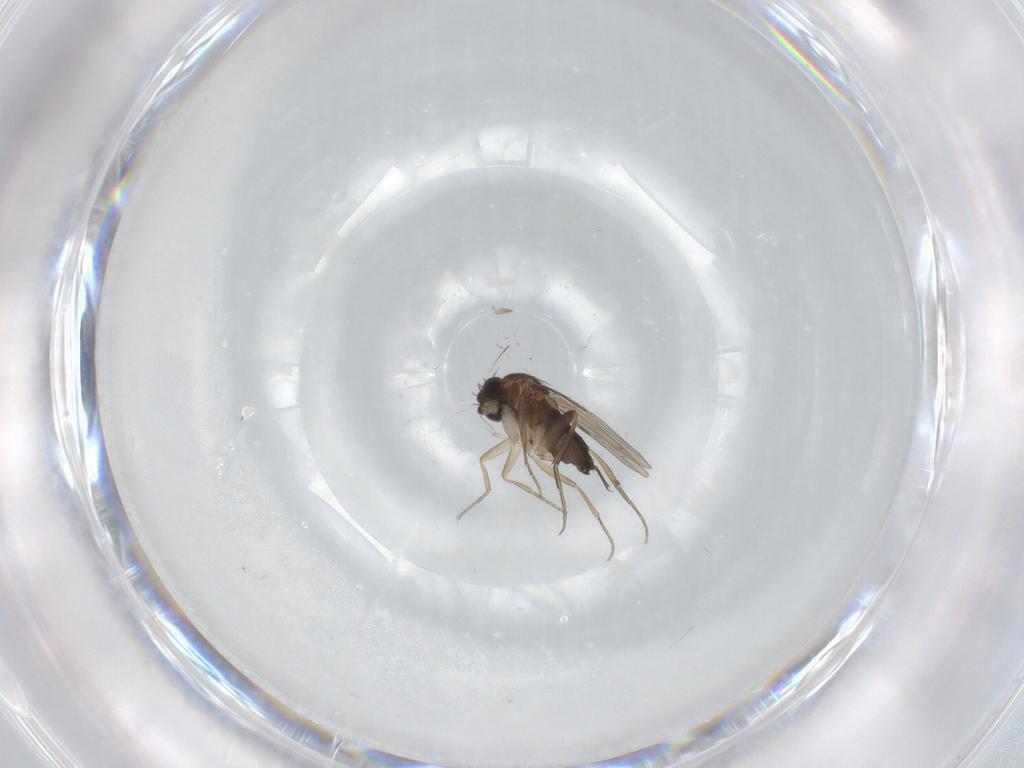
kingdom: Animalia
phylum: Arthropoda
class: Insecta
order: Diptera
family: Phoridae
